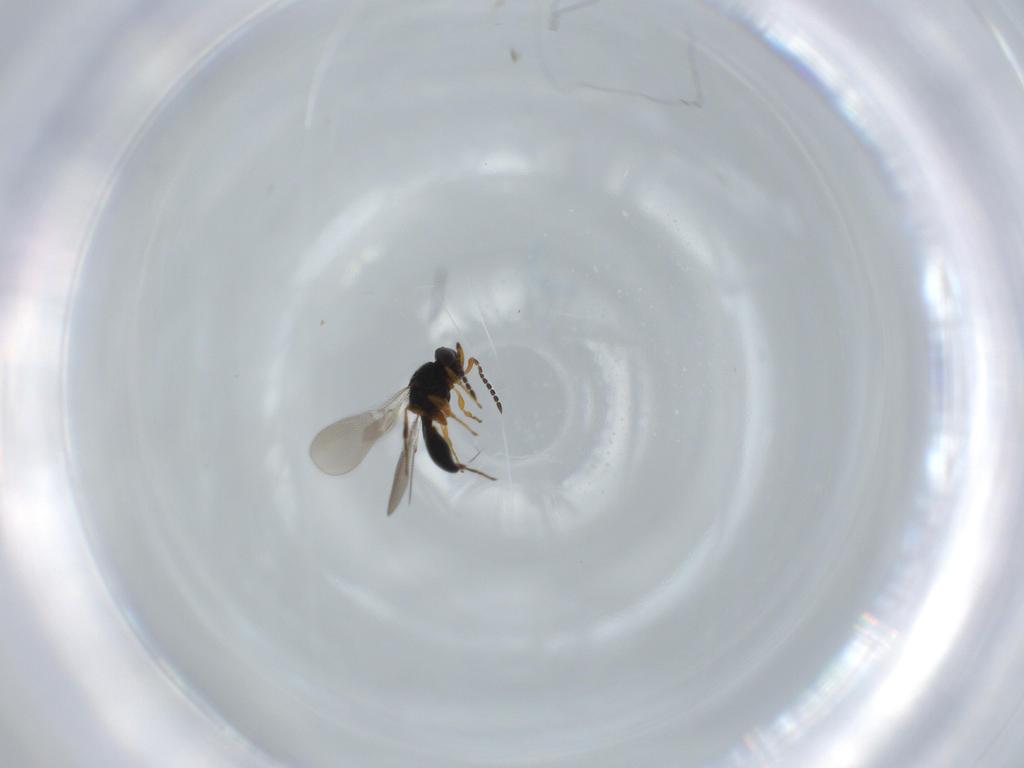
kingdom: Animalia
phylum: Arthropoda
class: Insecta
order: Hymenoptera
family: Platygastridae
